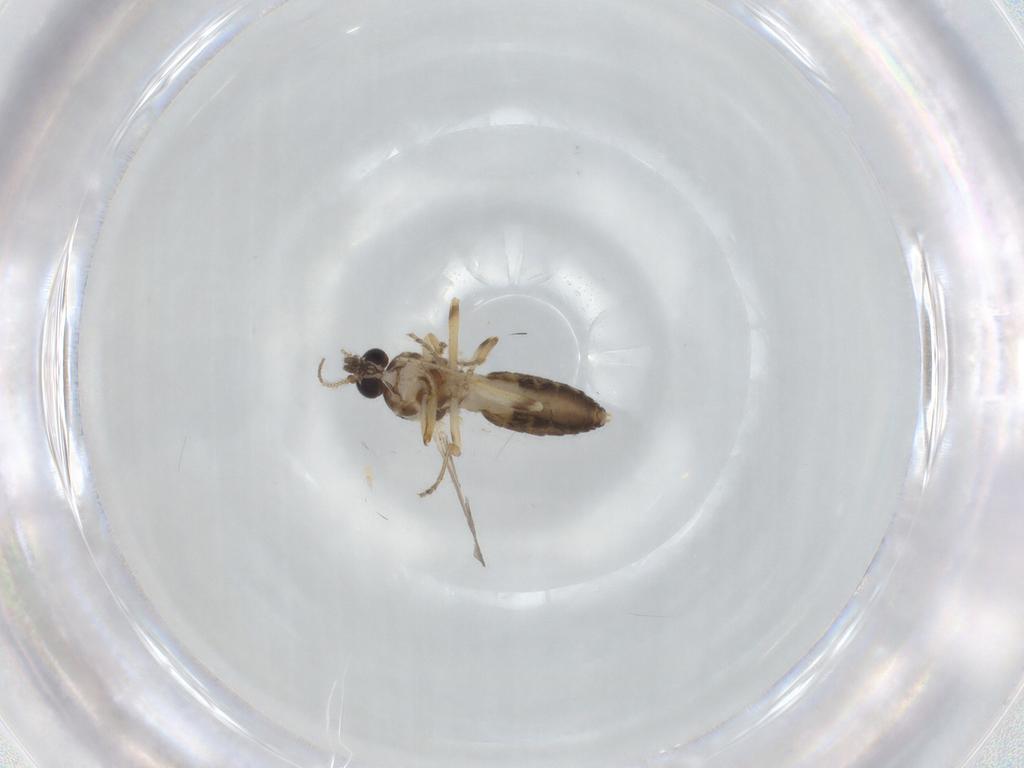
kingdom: Animalia
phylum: Arthropoda
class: Insecta
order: Diptera
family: Ceratopogonidae
